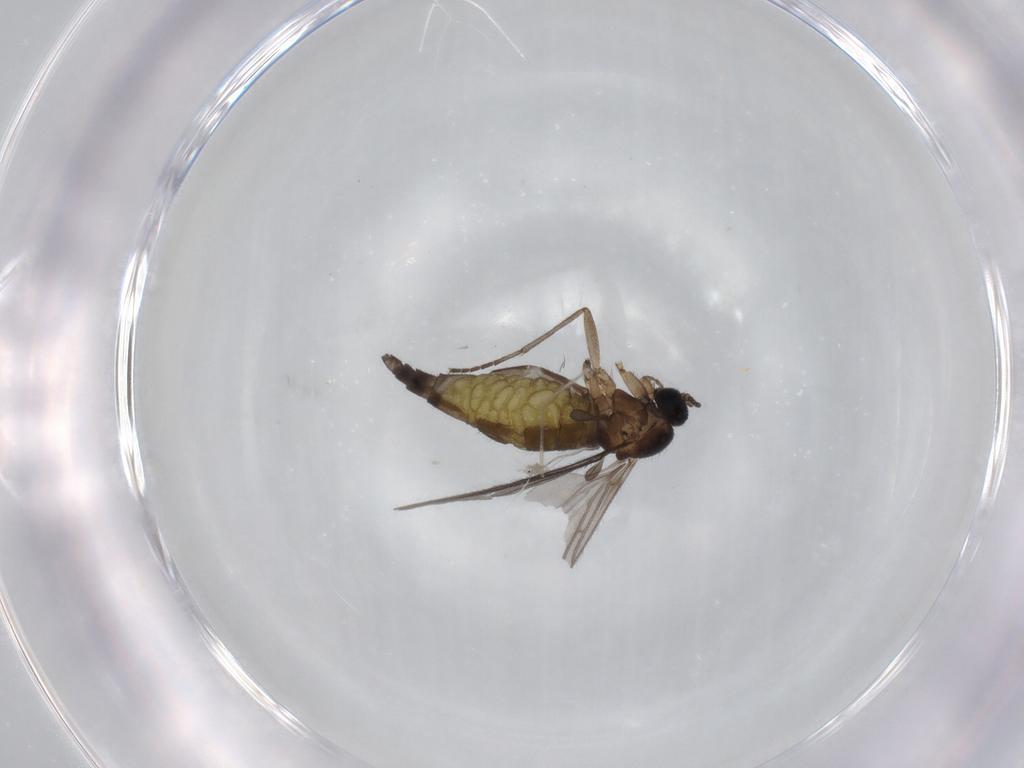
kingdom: Animalia
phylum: Arthropoda
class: Insecta
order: Diptera
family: Sciaridae
